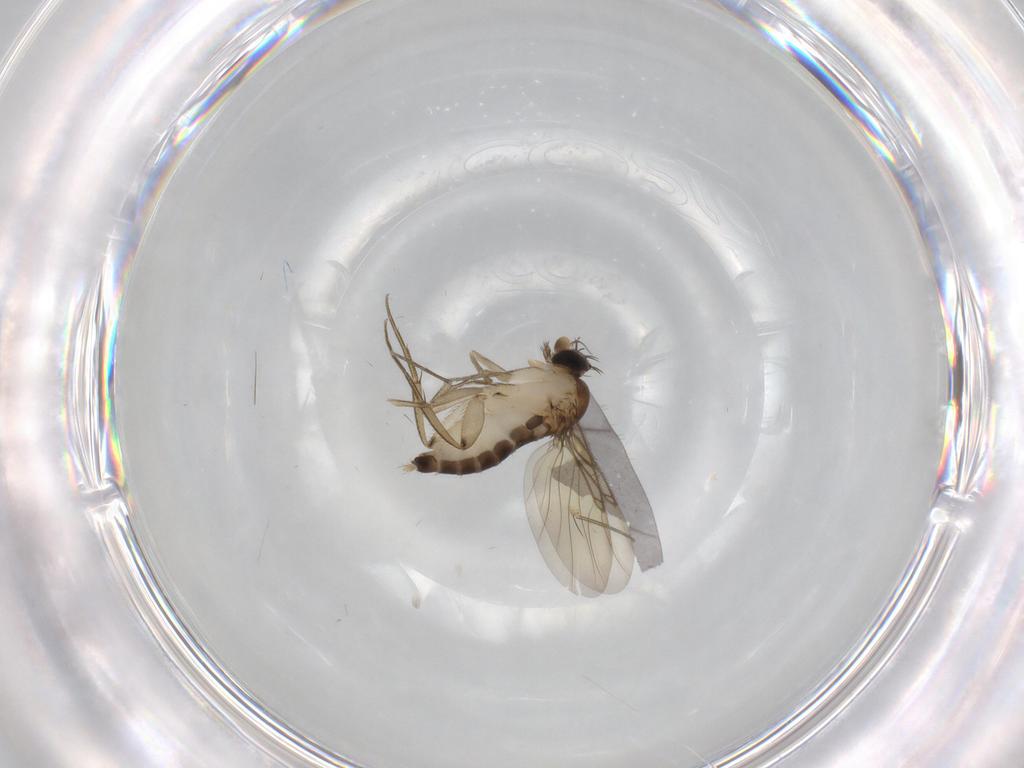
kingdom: Animalia
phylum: Arthropoda
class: Insecta
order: Diptera
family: Phoridae
